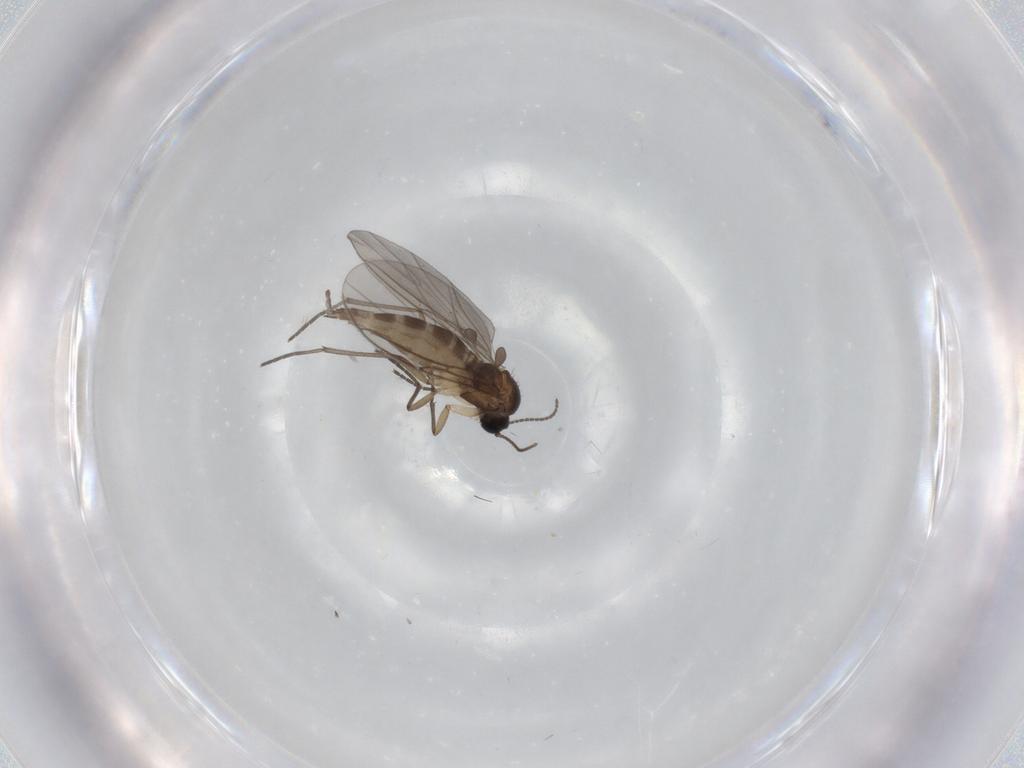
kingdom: Animalia
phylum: Arthropoda
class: Insecta
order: Diptera
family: Sciaridae
